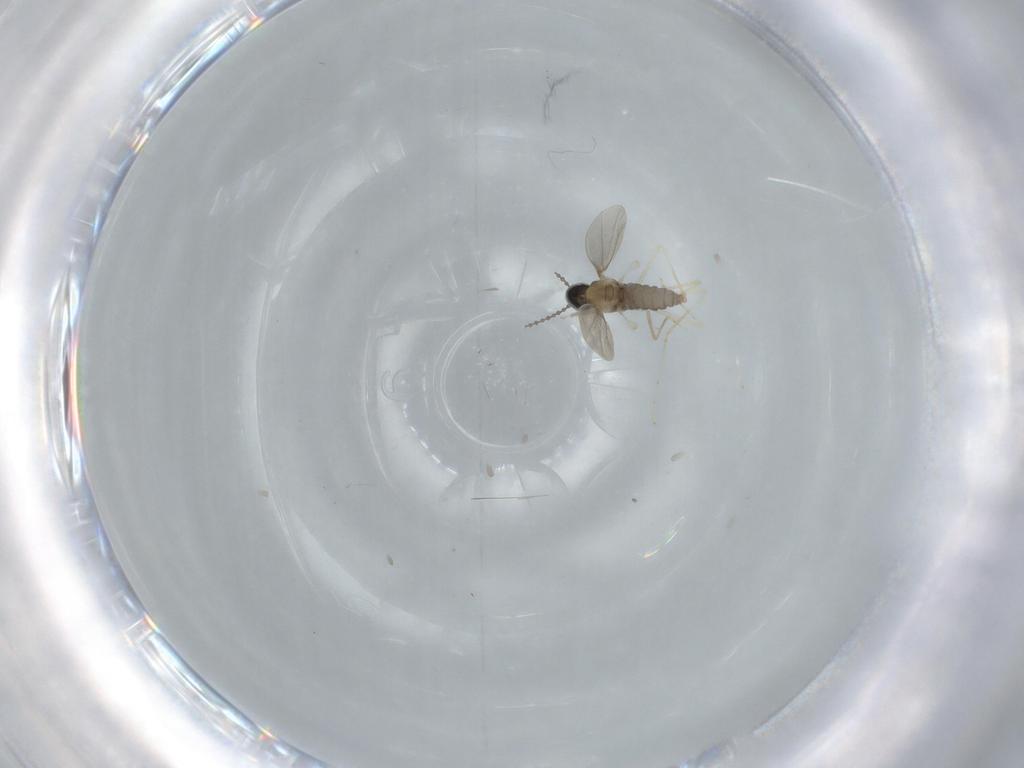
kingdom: Animalia
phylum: Arthropoda
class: Insecta
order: Diptera
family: Cecidomyiidae
